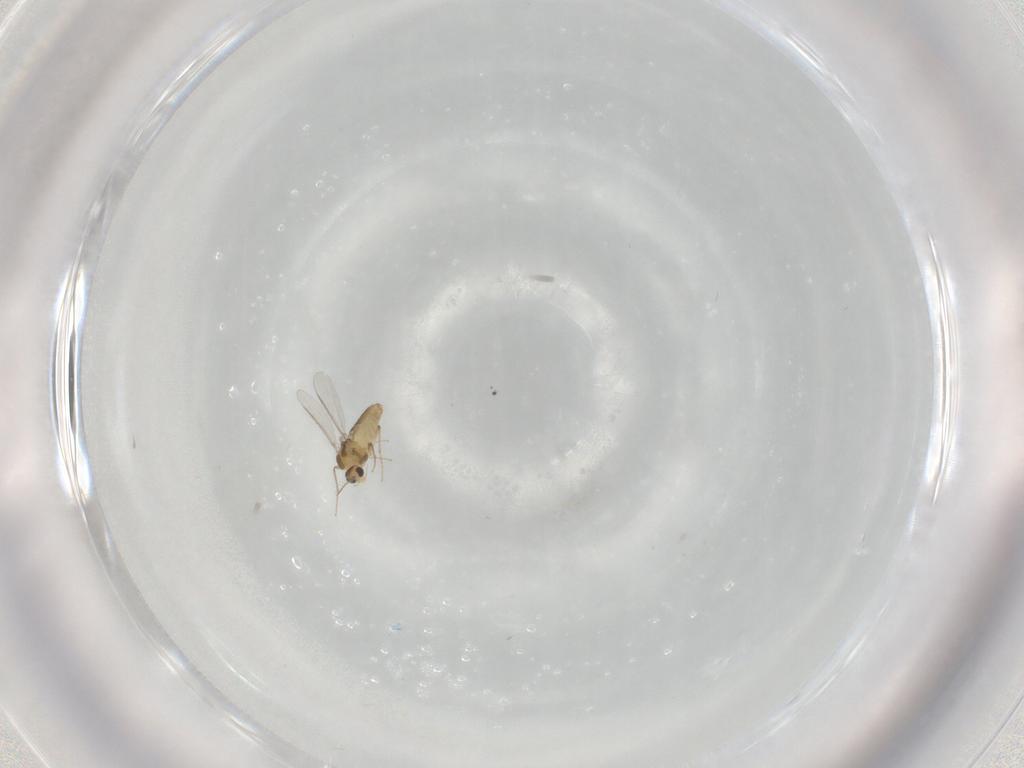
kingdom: Animalia
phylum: Arthropoda
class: Insecta
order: Diptera
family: Chironomidae
